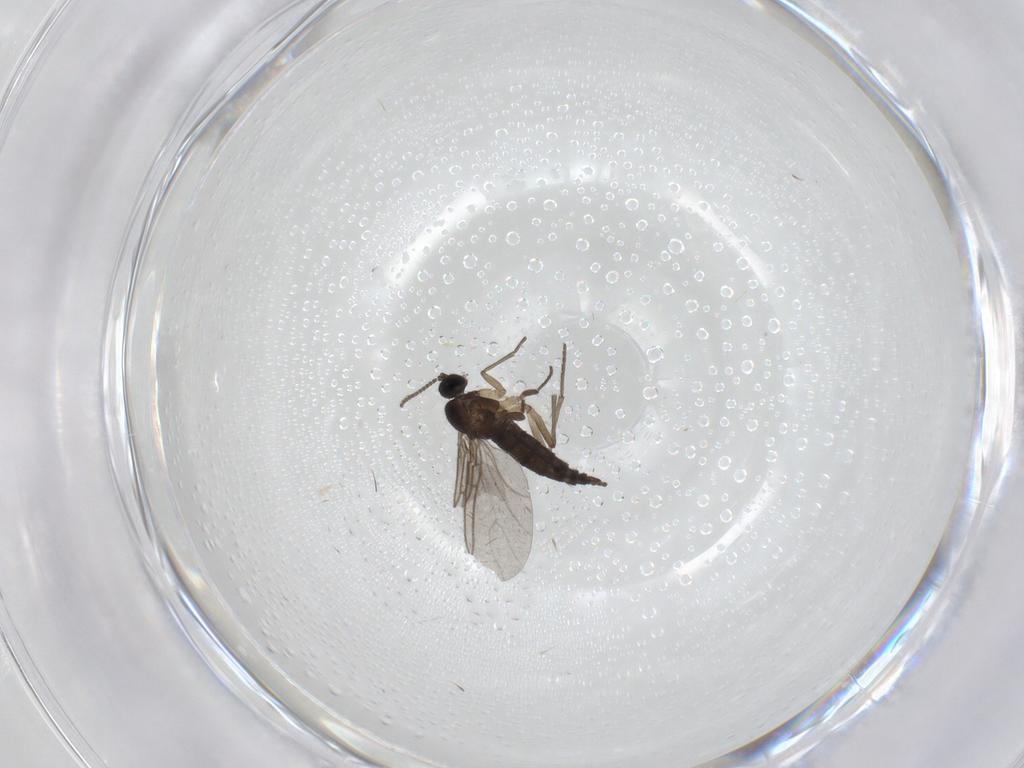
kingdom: Animalia
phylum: Arthropoda
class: Insecta
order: Diptera
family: Sciaridae
